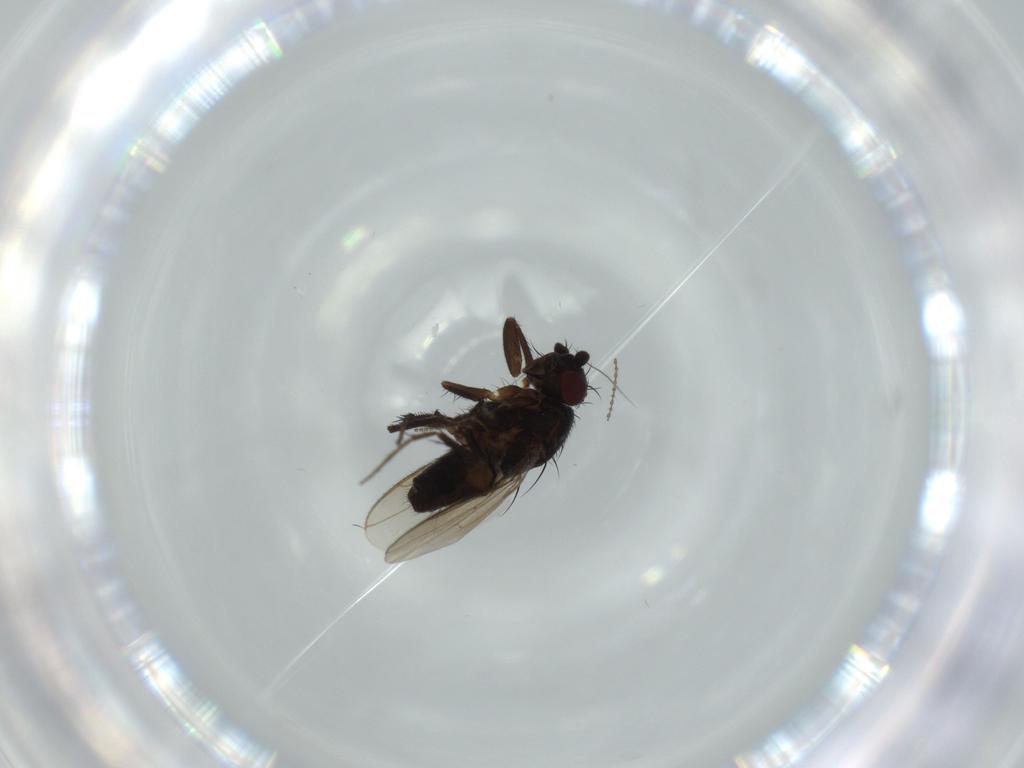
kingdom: Animalia
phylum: Arthropoda
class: Insecta
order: Diptera
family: Sphaeroceridae
